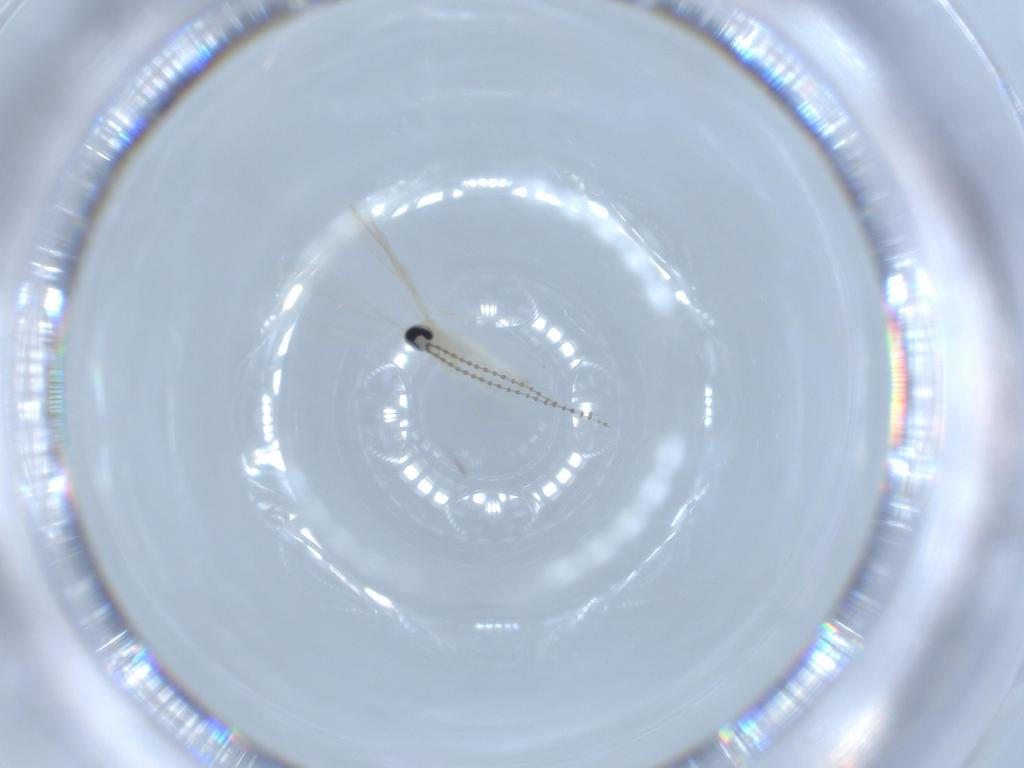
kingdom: Animalia
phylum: Arthropoda
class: Insecta
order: Diptera
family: Cecidomyiidae
